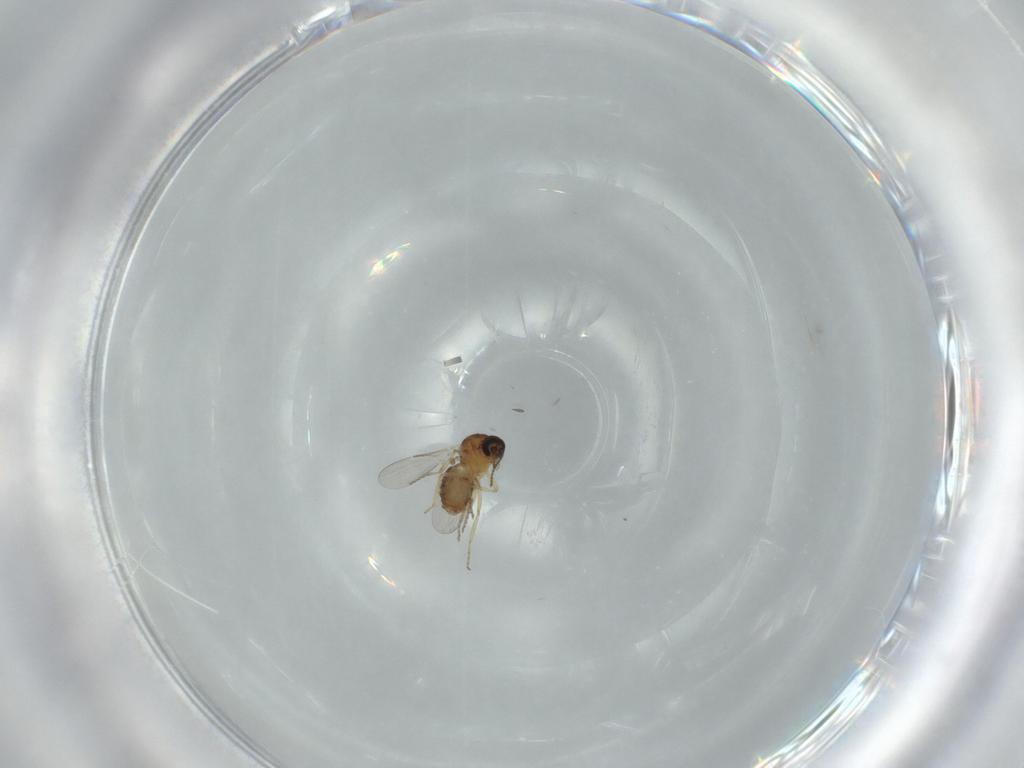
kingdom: Animalia
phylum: Arthropoda
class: Insecta
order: Diptera
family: Ceratopogonidae
